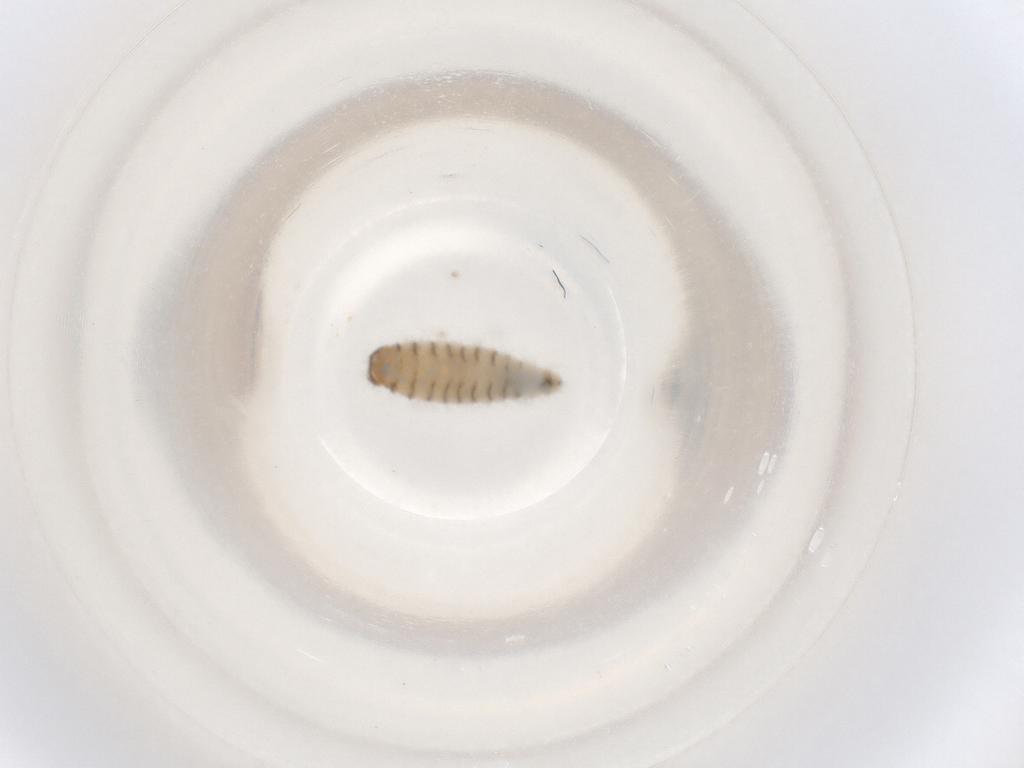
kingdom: Animalia
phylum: Arthropoda
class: Insecta
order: Diptera
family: Sarcophagidae
